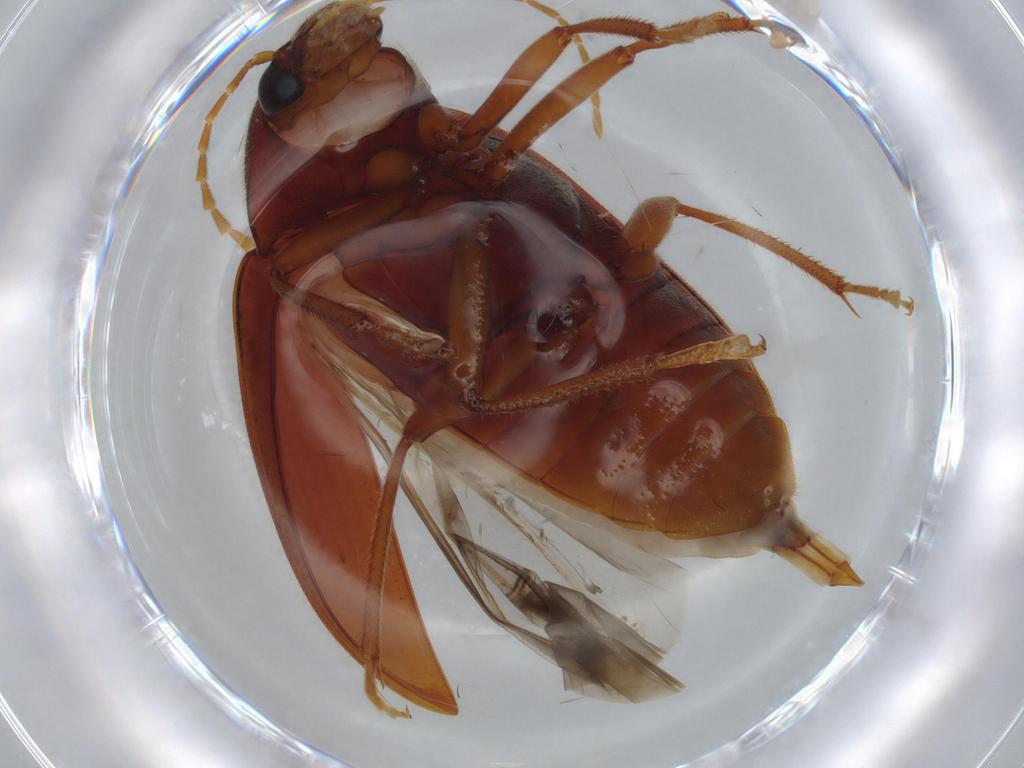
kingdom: Animalia
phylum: Arthropoda
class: Insecta
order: Coleoptera
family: Ptilodactylidae
